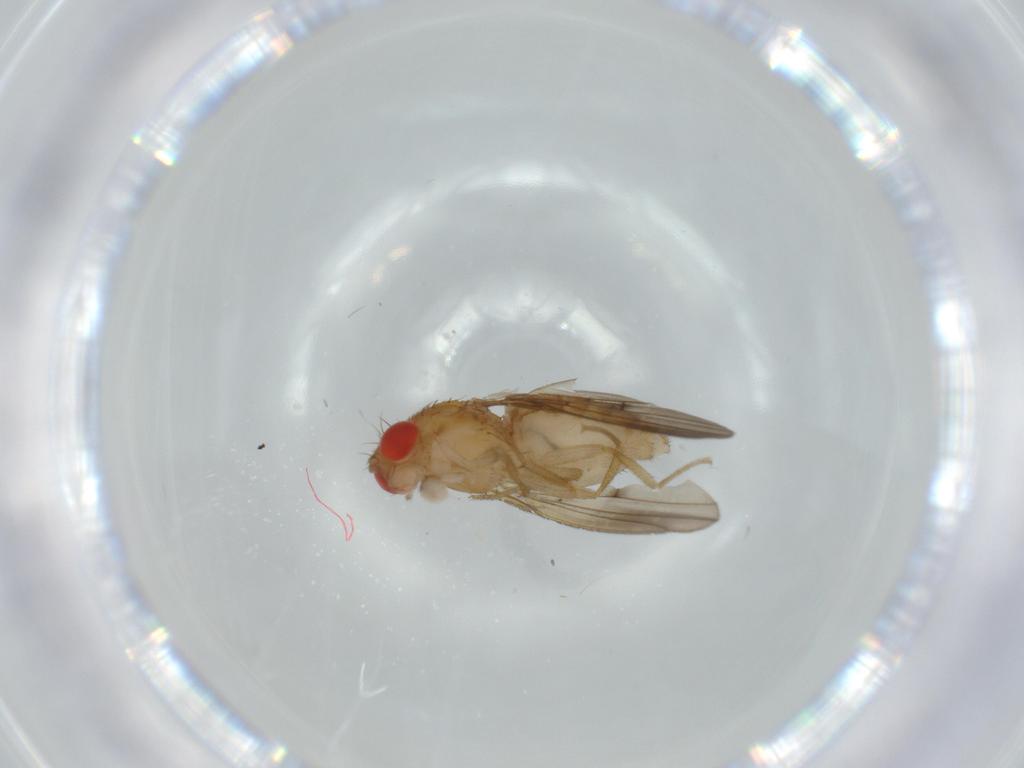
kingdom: Animalia
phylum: Arthropoda
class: Insecta
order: Diptera
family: Drosophilidae
